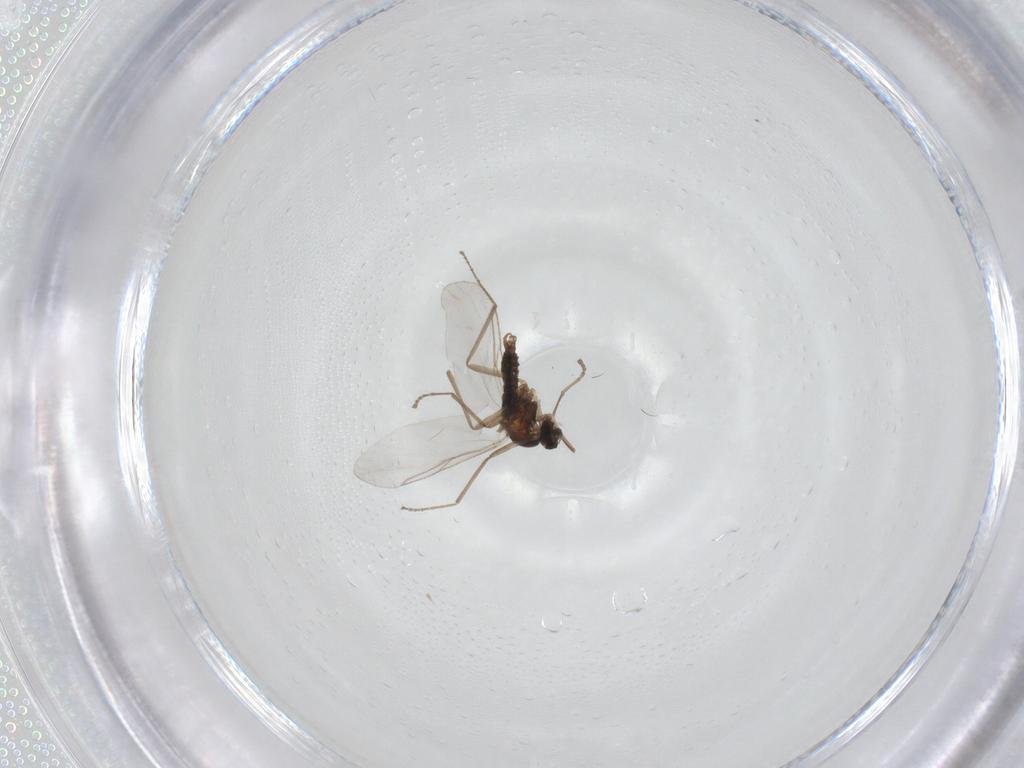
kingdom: Animalia
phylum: Arthropoda
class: Insecta
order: Diptera
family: Cecidomyiidae
